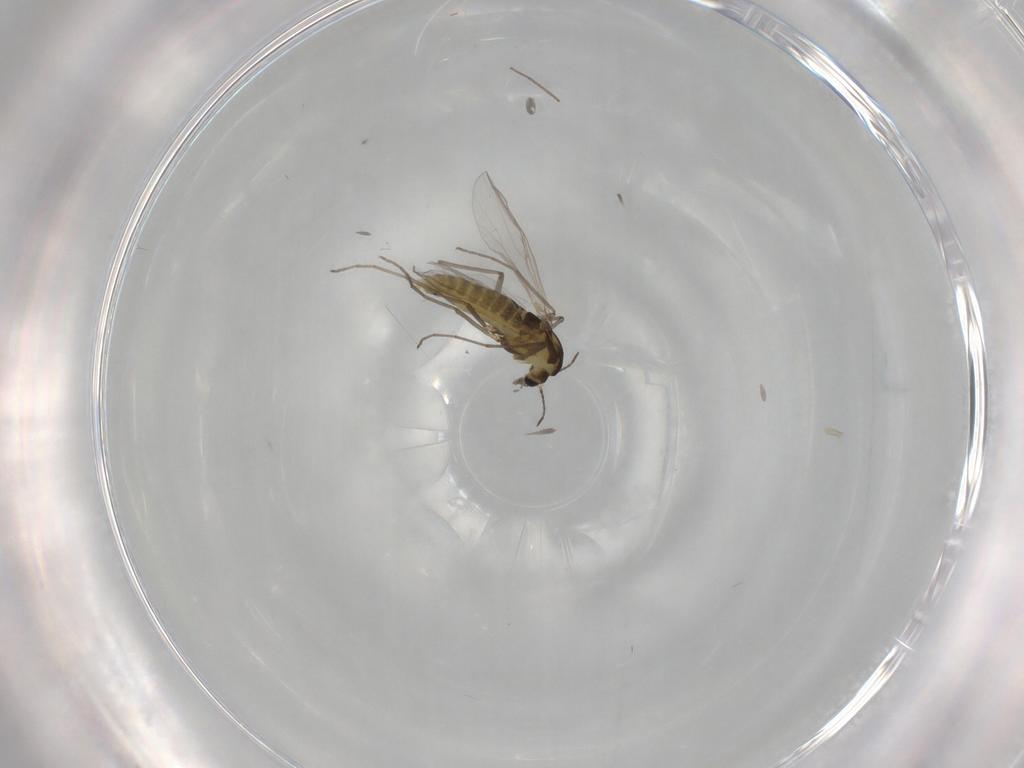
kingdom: Animalia
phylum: Arthropoda
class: Insecta
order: Diptera
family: Chironomidae
